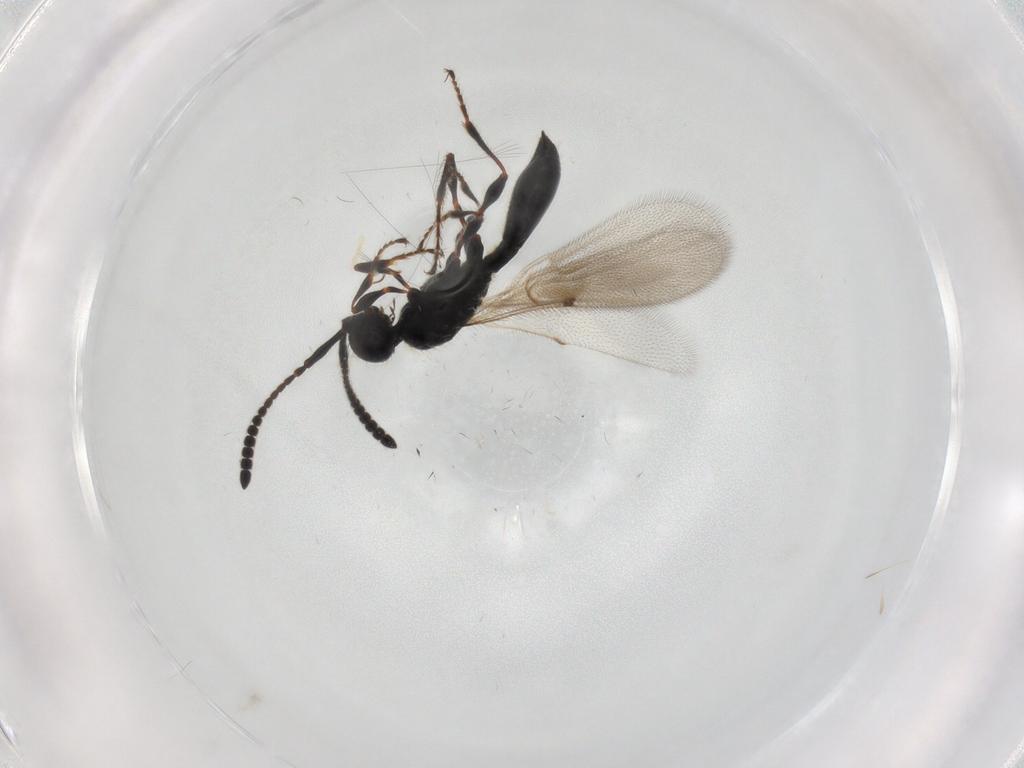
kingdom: Animalia
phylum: Arthropoda
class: Insecta
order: Hymenoptera
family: Diapriidae
